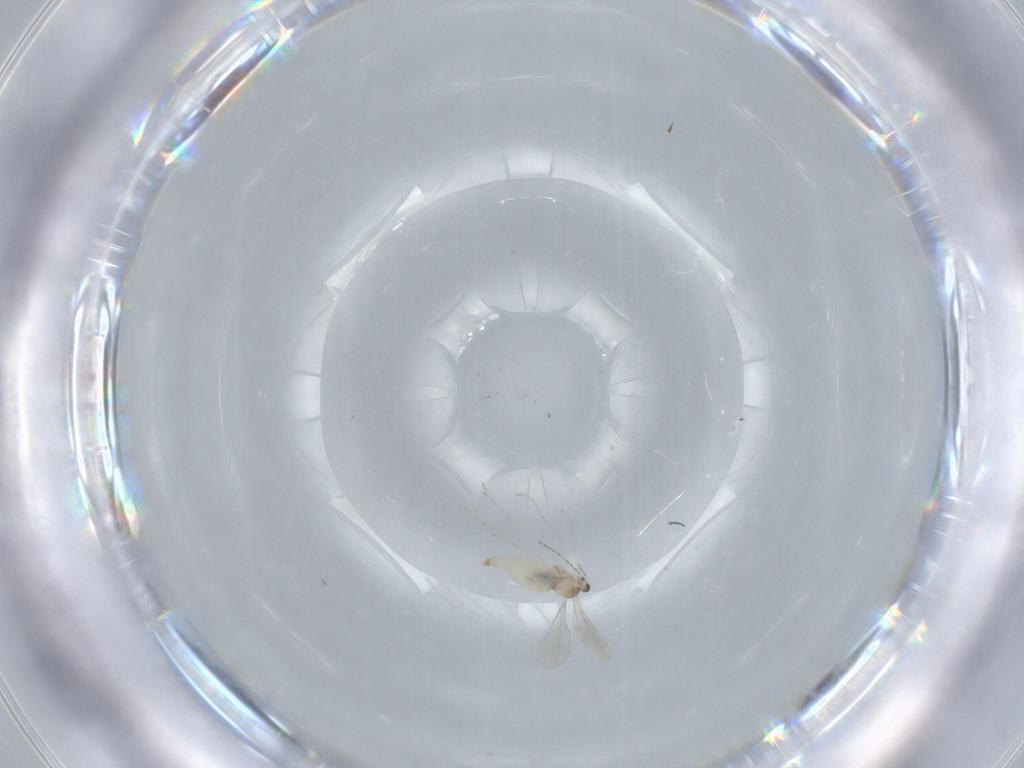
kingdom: Animalia
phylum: Arthropoda
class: Insecta
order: Diptera
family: Cecidomyiidae
